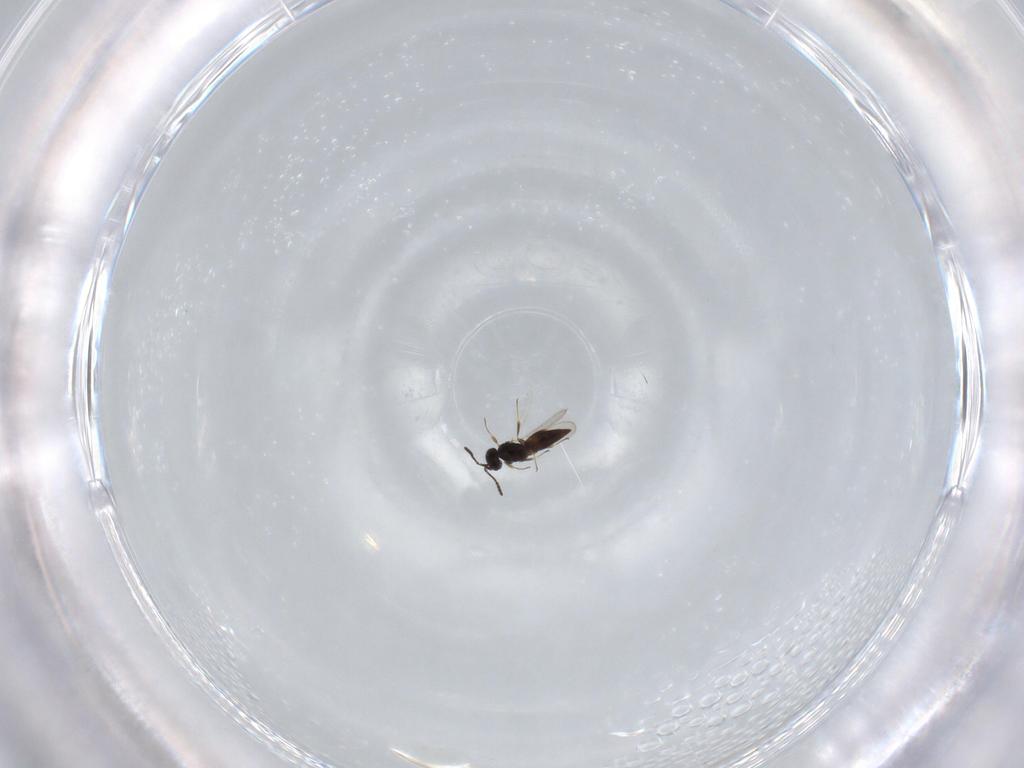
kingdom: Animalia
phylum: Arthropoda
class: Insecta
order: Hymenoptera
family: Scelionidae
